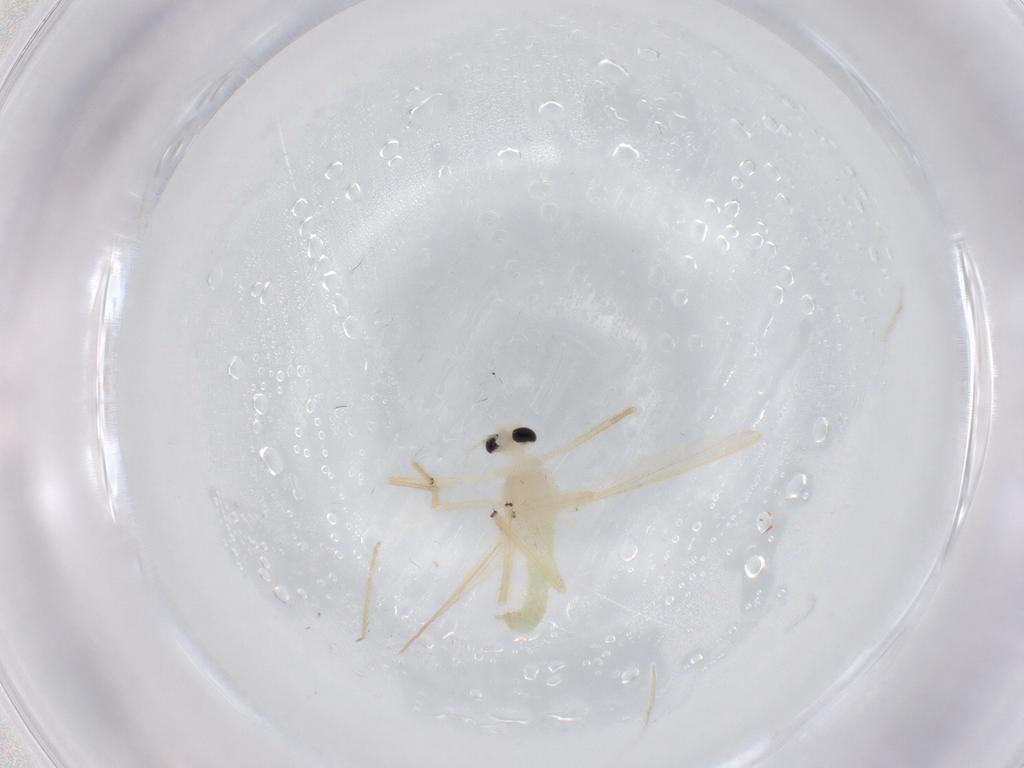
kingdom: Animalia
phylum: Arthropoda
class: Insecta
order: Diptera
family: Chironomidae
